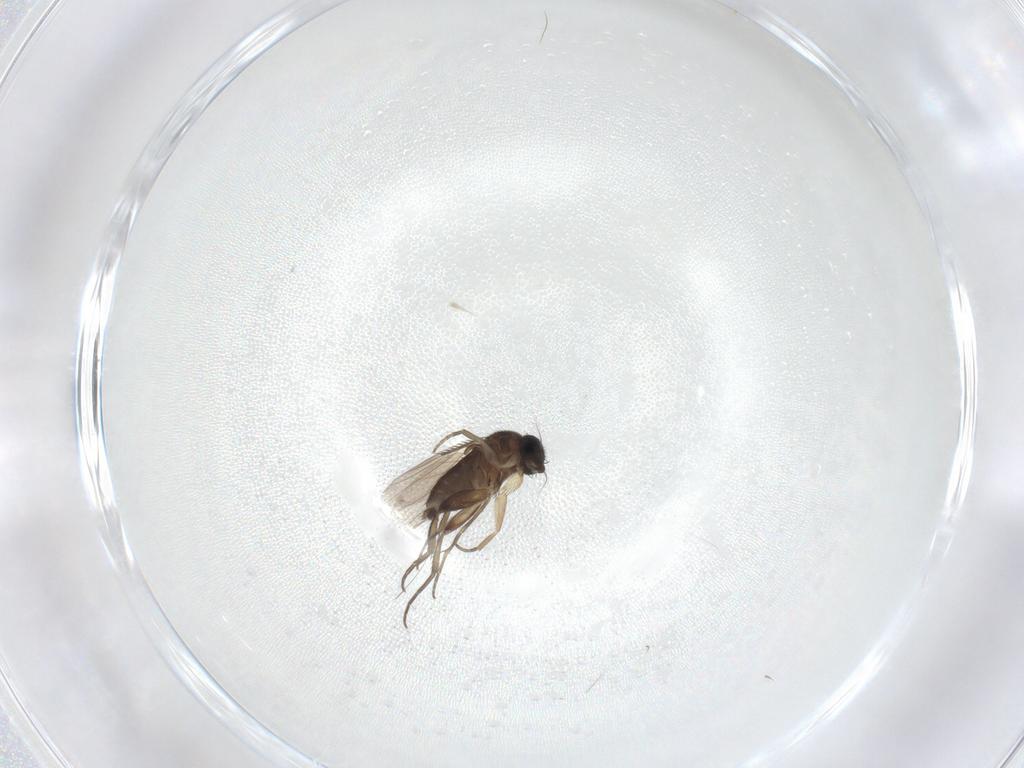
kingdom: Animalia
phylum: Arthropoda
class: Insecta
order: Diptera
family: Phoridae
